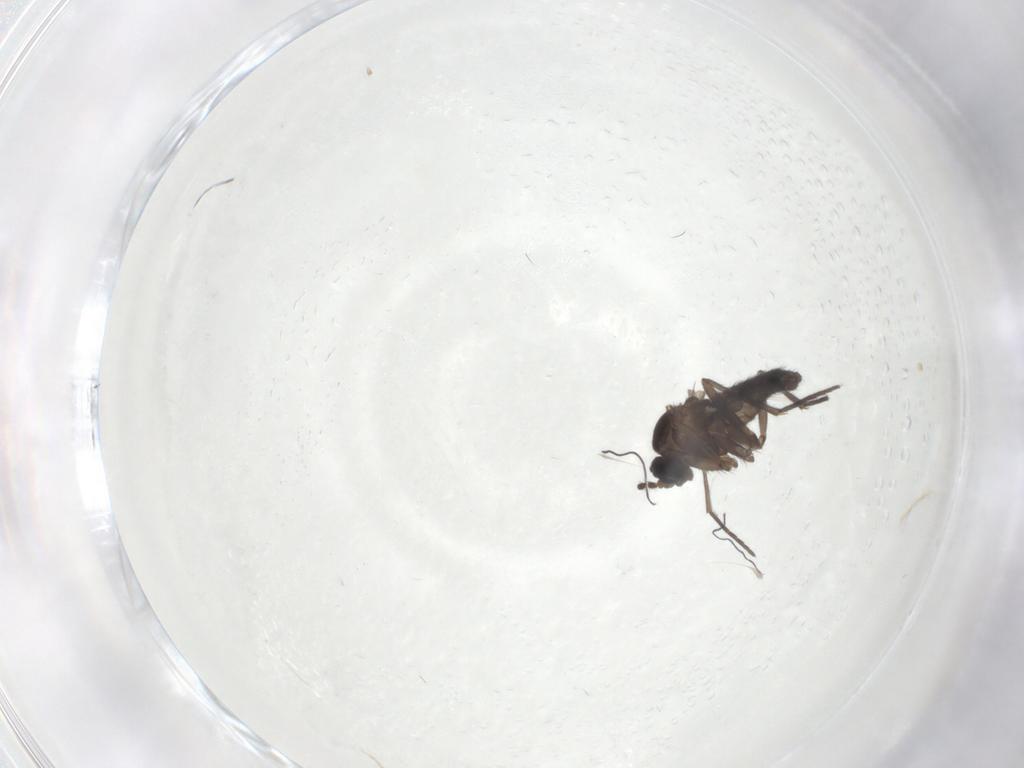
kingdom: Animalia
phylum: Arthropoda
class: Insecta
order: Diptera
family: Sciaridae
